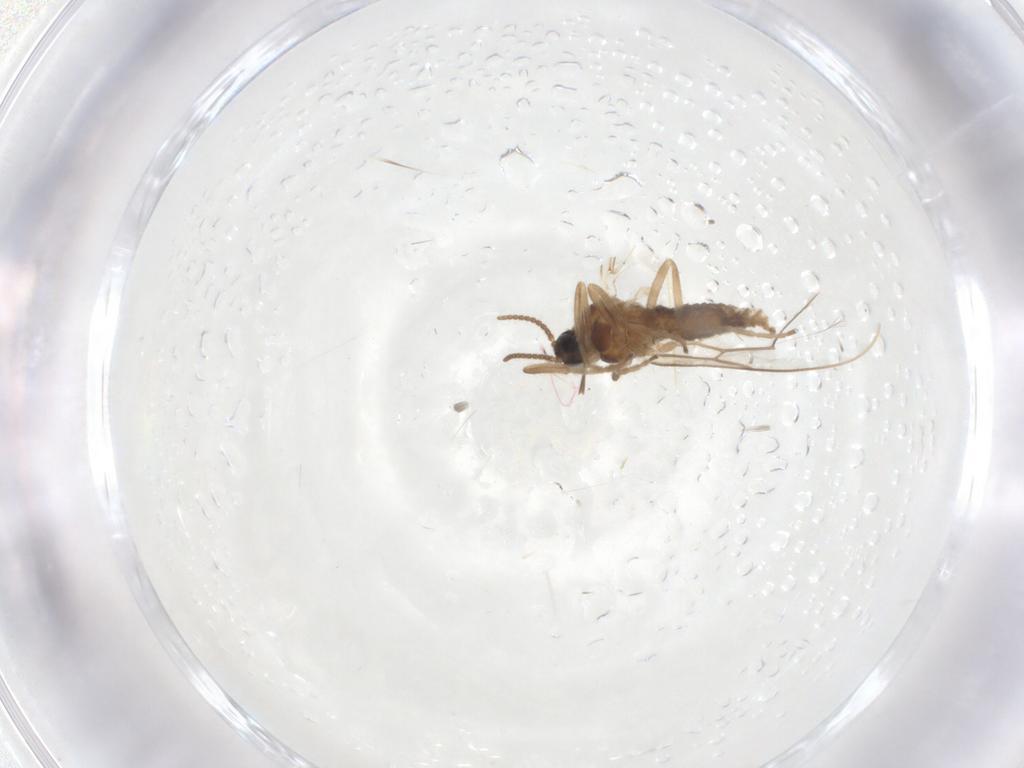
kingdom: Animalia
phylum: Arthropoda
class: Insecta
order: Diptera
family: Cecidomyiidae
